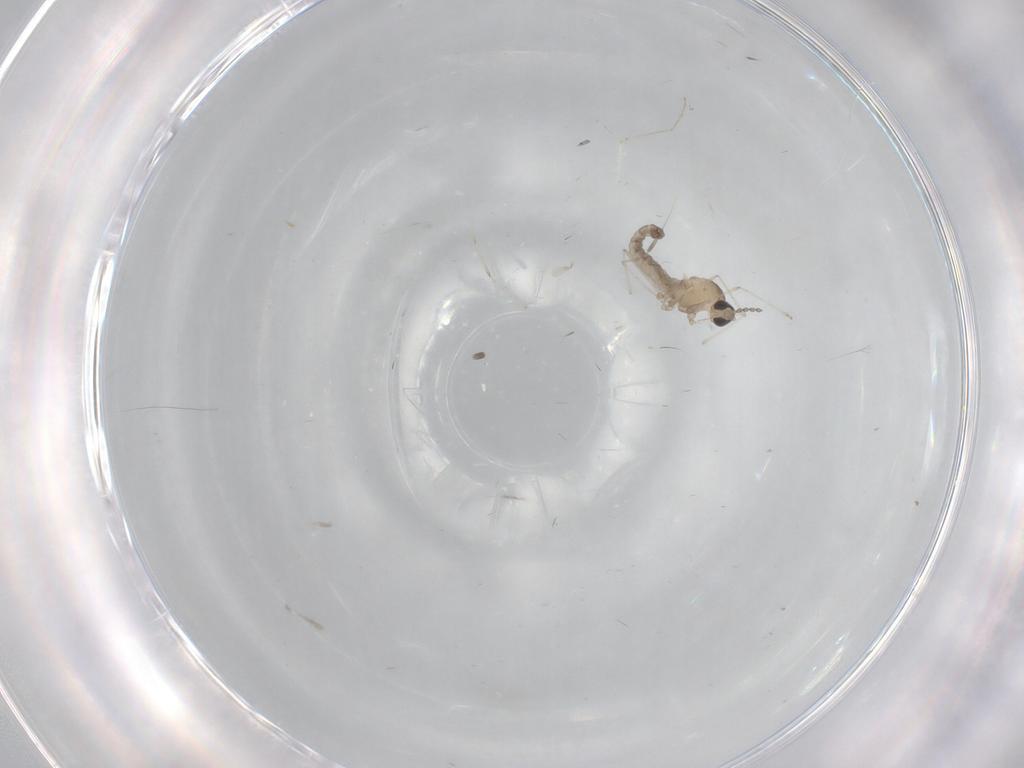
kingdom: Animalia
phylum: Arthropoda
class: Insecta
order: Diptera
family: Cecidomyiidae
